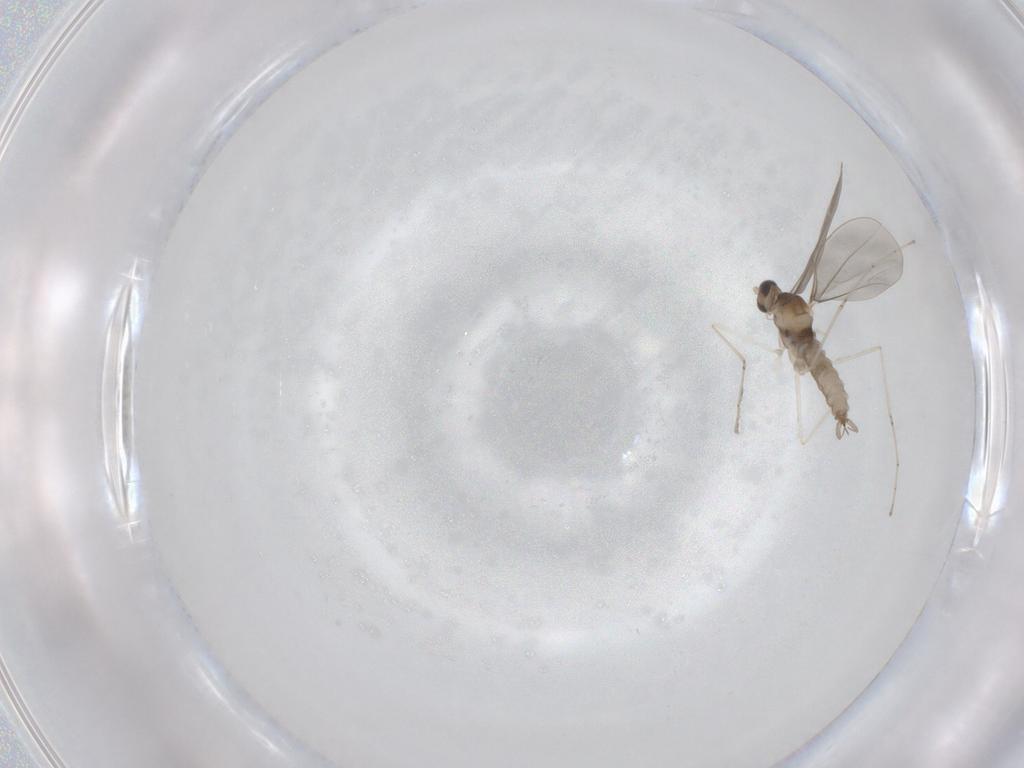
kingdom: Animalia
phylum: Arthropoda
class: Insecta
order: Diptera
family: Cecidomyiidae
